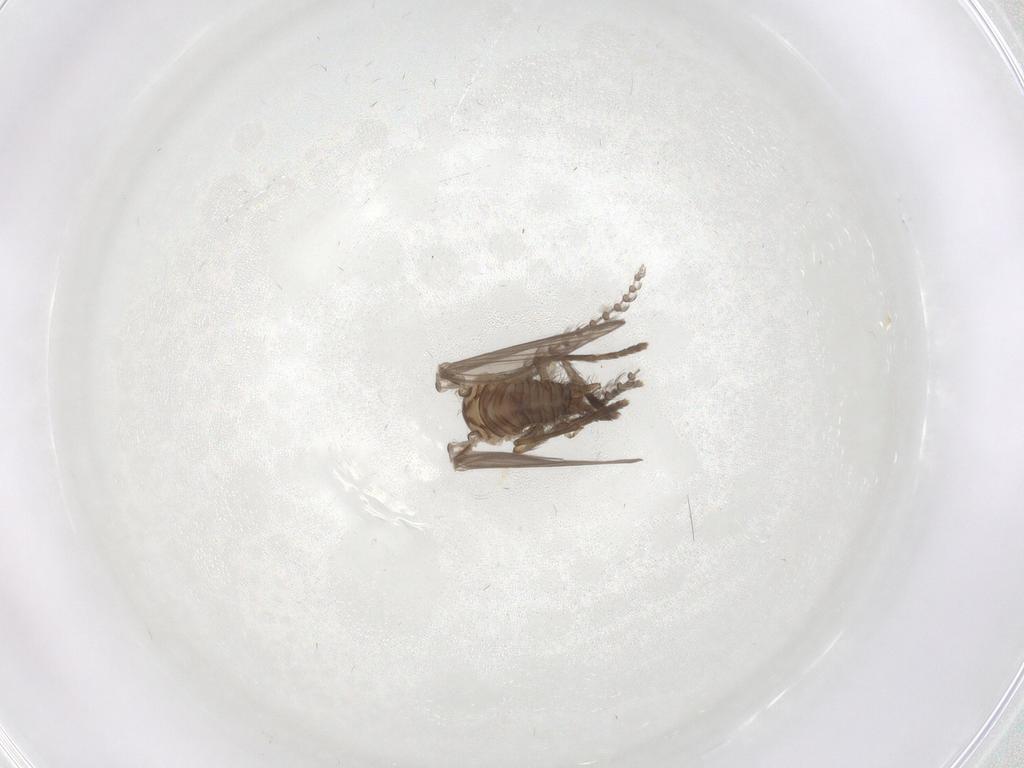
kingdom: Animalia
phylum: Arthropoda
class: Insecta
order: Diptera
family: Psychodidae
